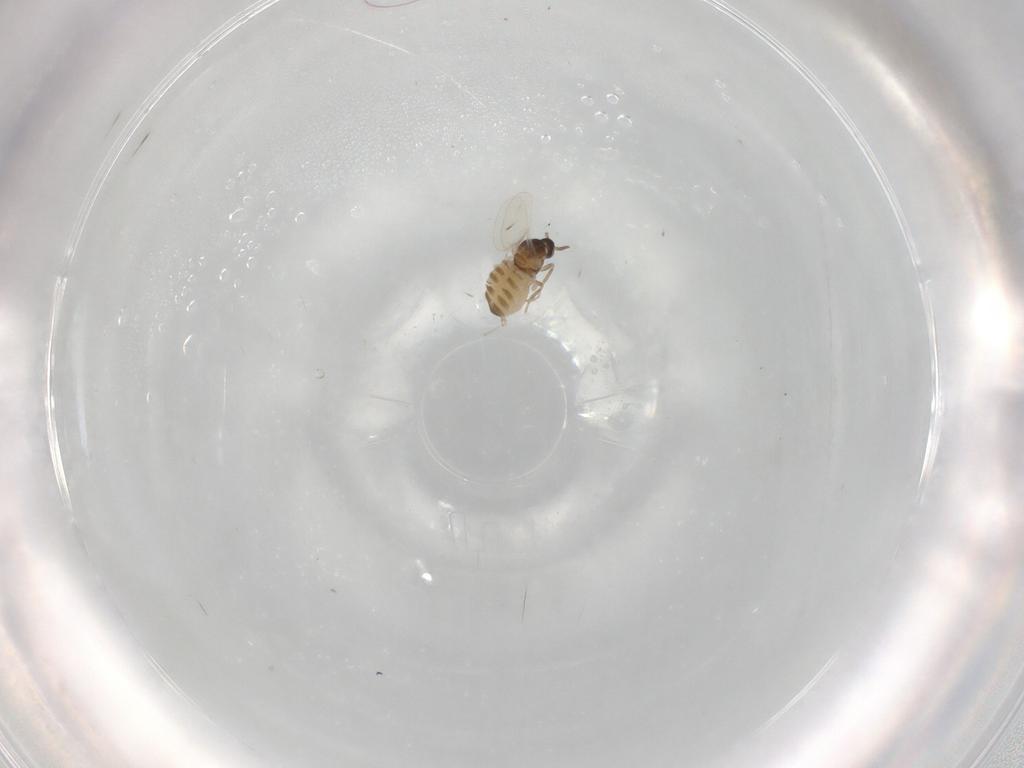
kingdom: Animalia
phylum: Arthropoda
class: Insecta
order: Diptera
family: Cecidomyiidae
